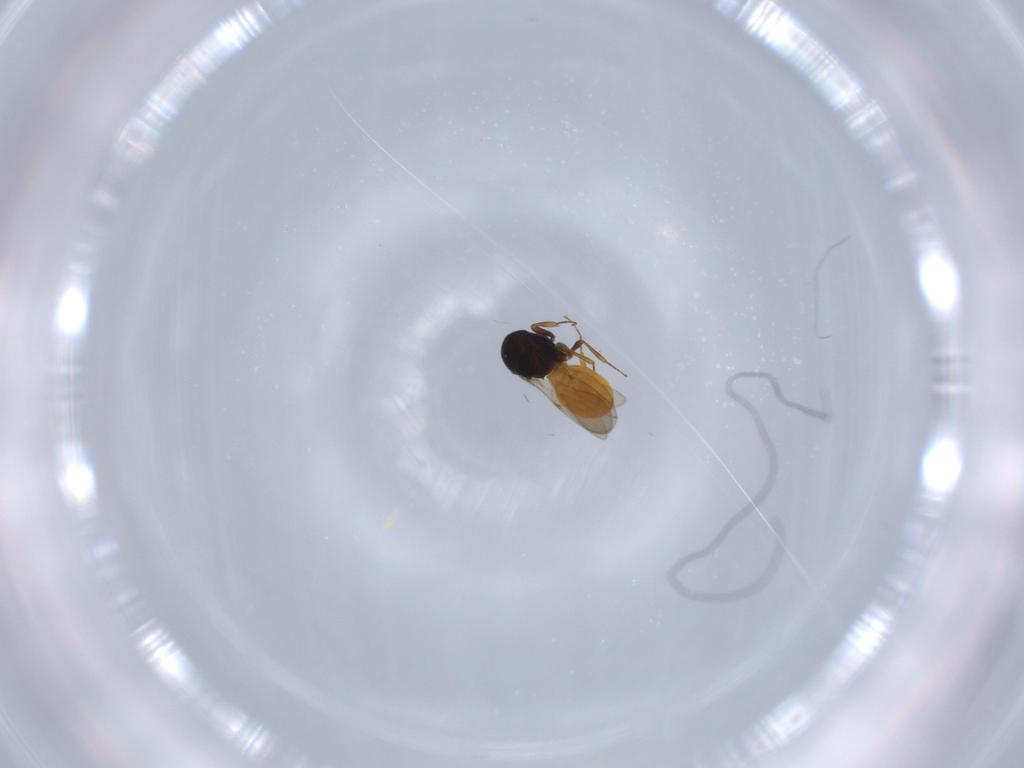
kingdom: Animalia
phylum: Arthropoda
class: Insecta
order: Hymenoptera
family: Scelionidae
